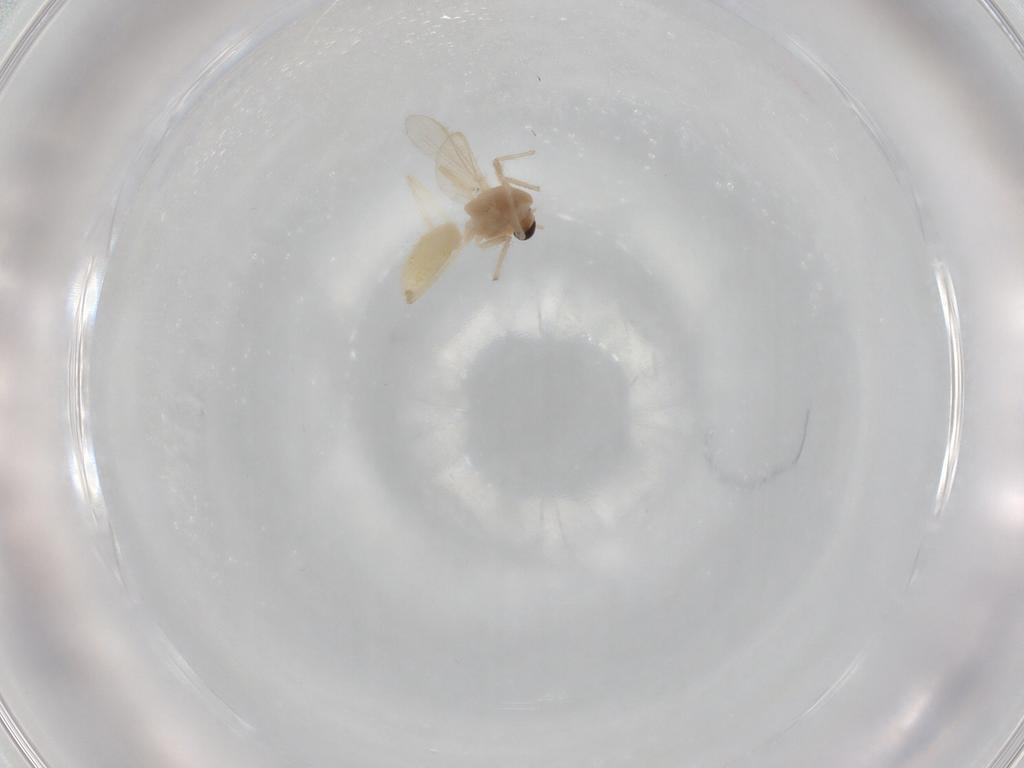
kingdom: Animalia
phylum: Arthropoda
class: Insecta
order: Diptera
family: Chironomidae
